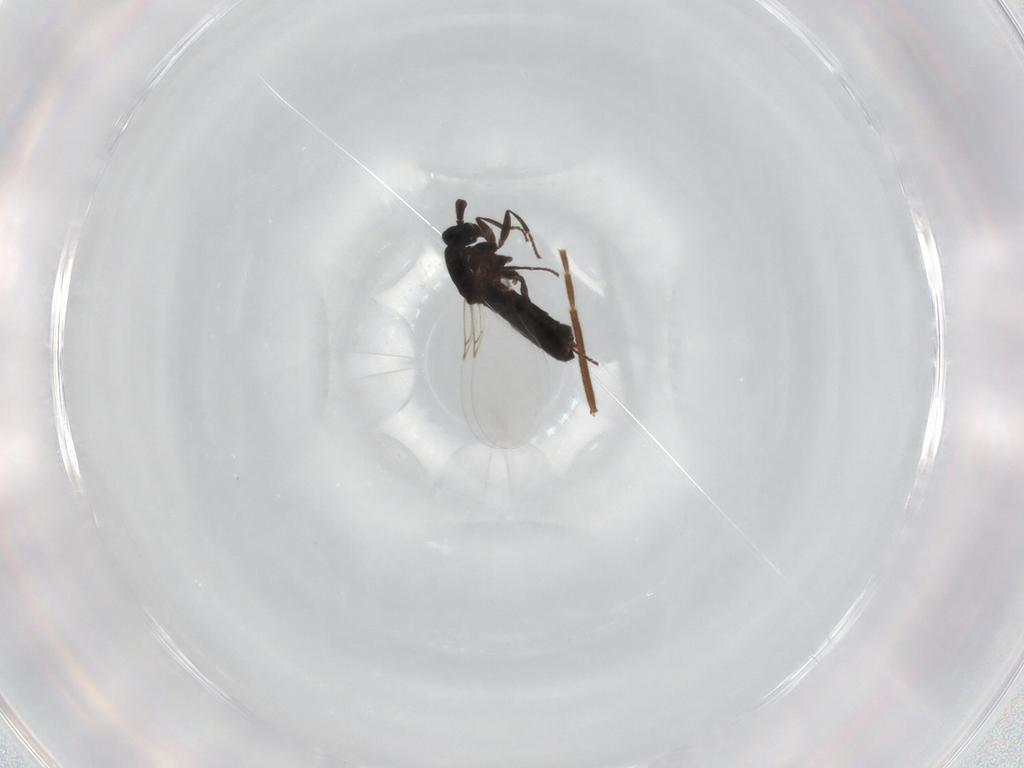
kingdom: Animalia
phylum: Arthropoda
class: Insecta
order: Diptera
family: Scatopsidae
